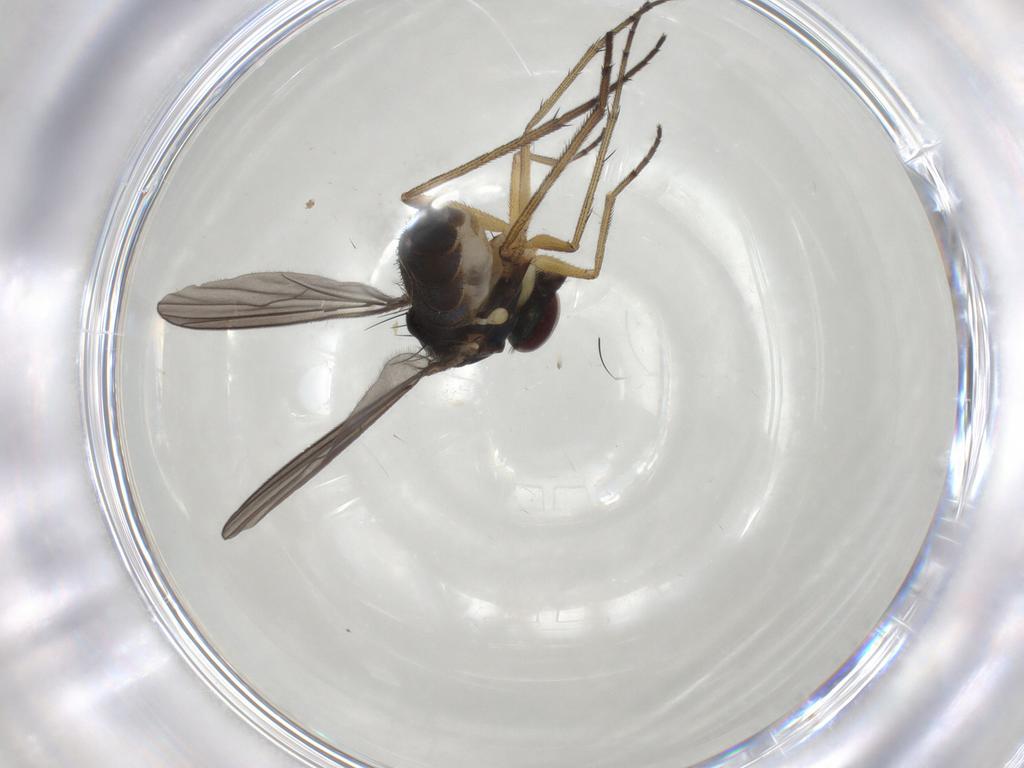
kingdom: Animalia
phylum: Arthropoda
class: Insecta
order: Diptera
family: Dolichopodidae
